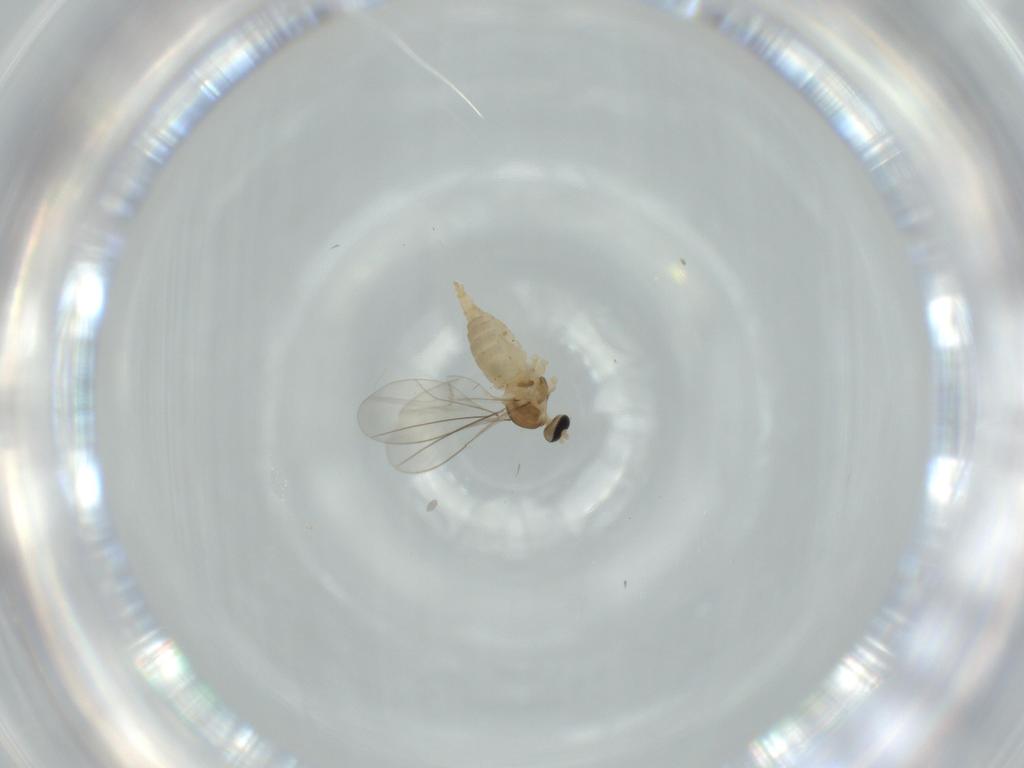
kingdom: Animalia
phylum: Arthropoda
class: Insecta
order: Diptera
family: Cecidomyiidae
